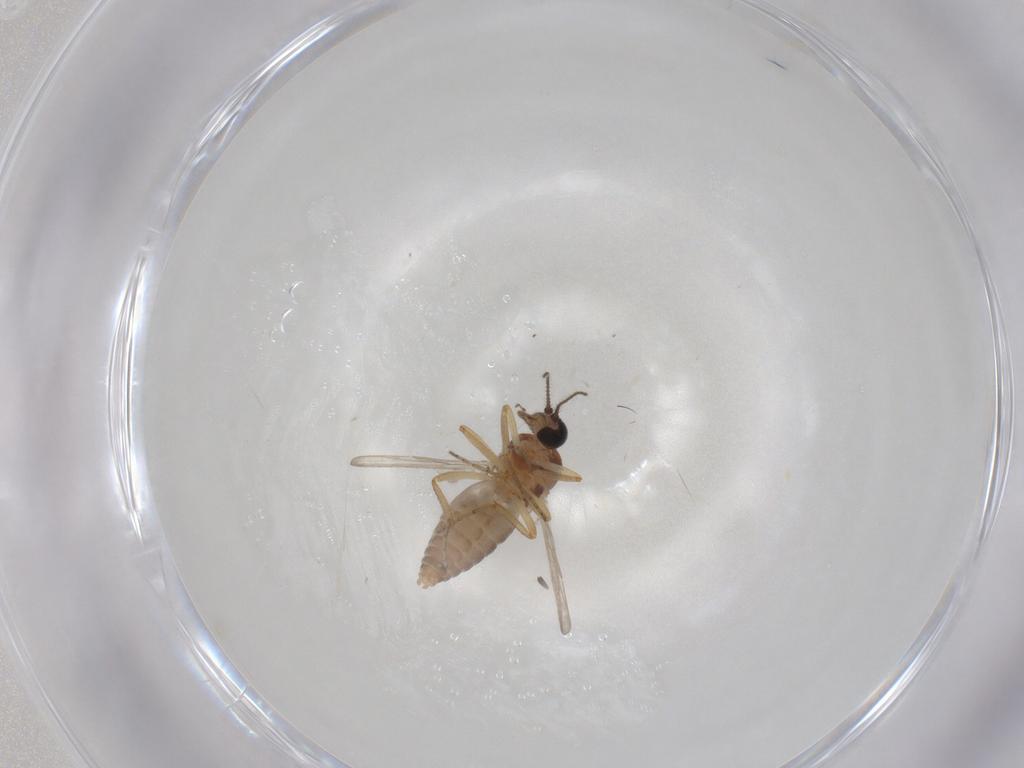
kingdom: Animalia
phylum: Arthropoda
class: Insecta
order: Diptera
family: Ceratopogonidae
